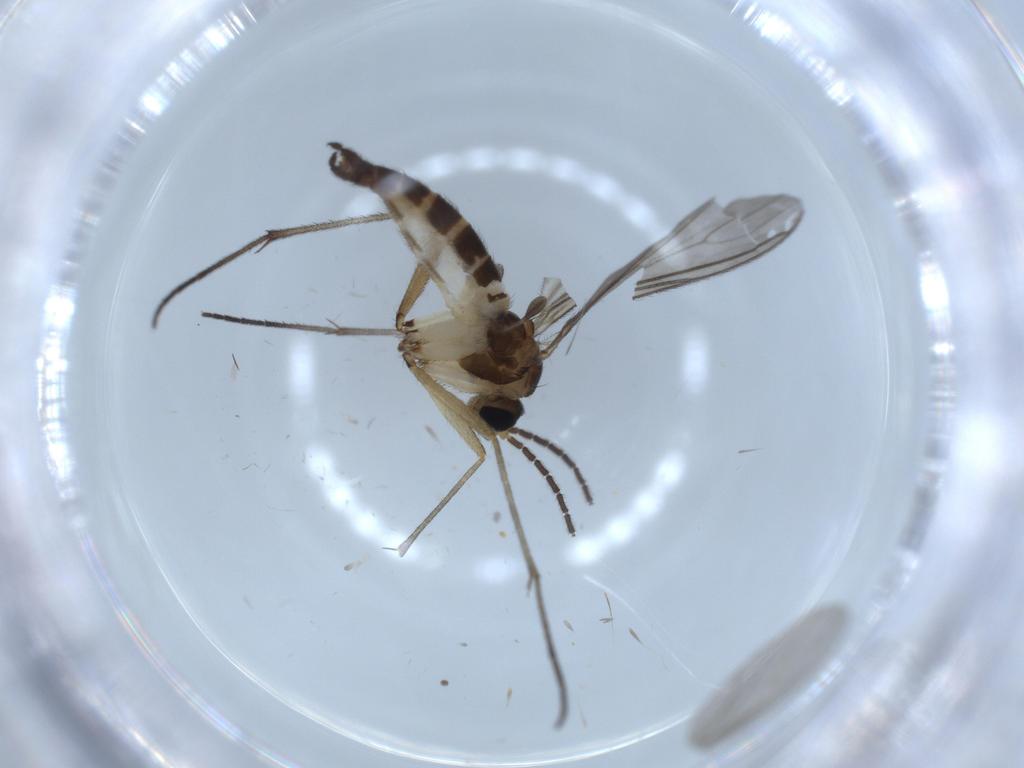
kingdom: Animalia
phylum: Arthropoda
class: Insecta
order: Diptera
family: Sciaridae
